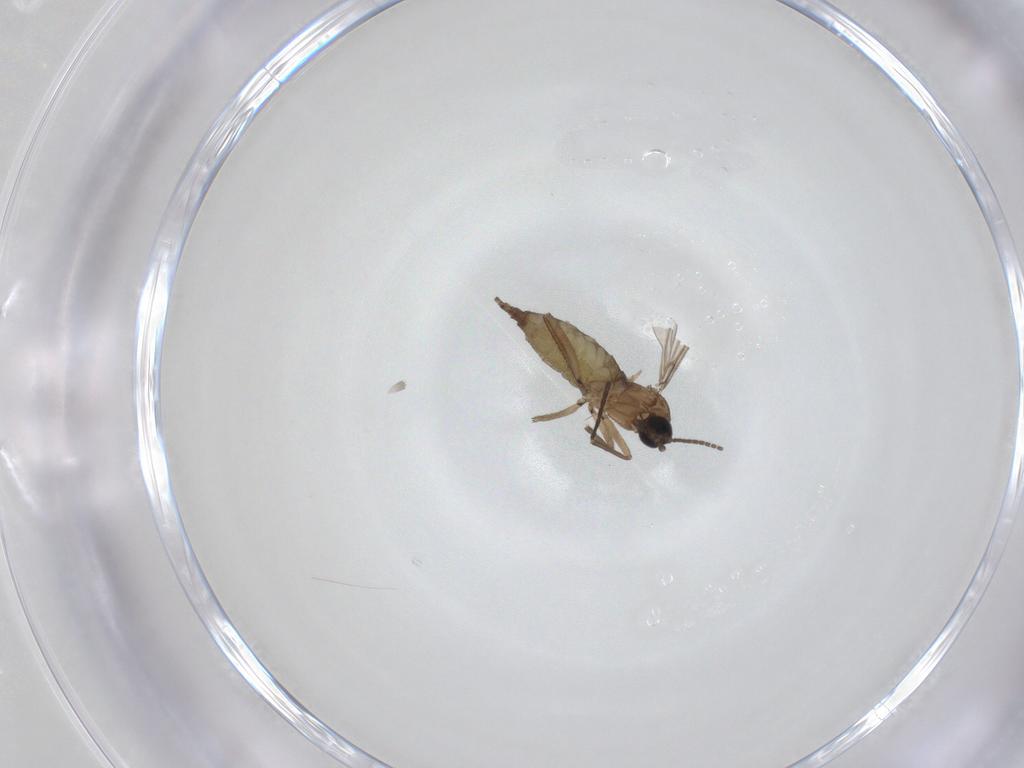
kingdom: Animalia
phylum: Arthropoda
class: Insecta
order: Diptera
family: Sciaridae
